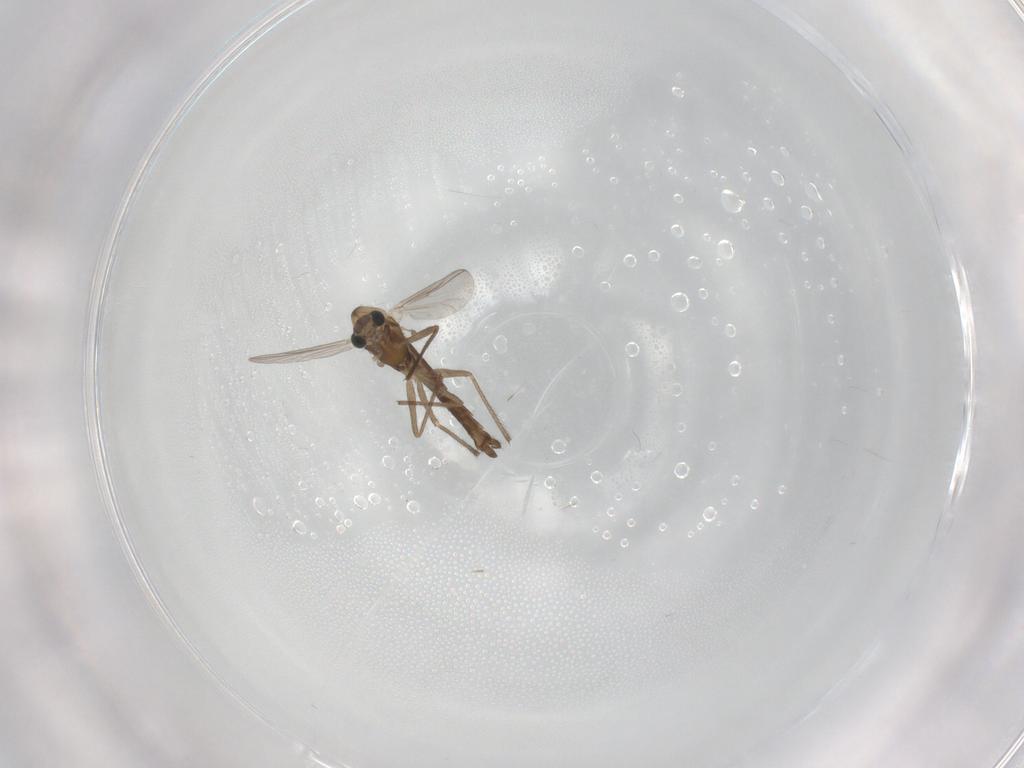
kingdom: Animalia
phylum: Arthropoda
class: Insecta
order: Diptera
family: Chironomidae
